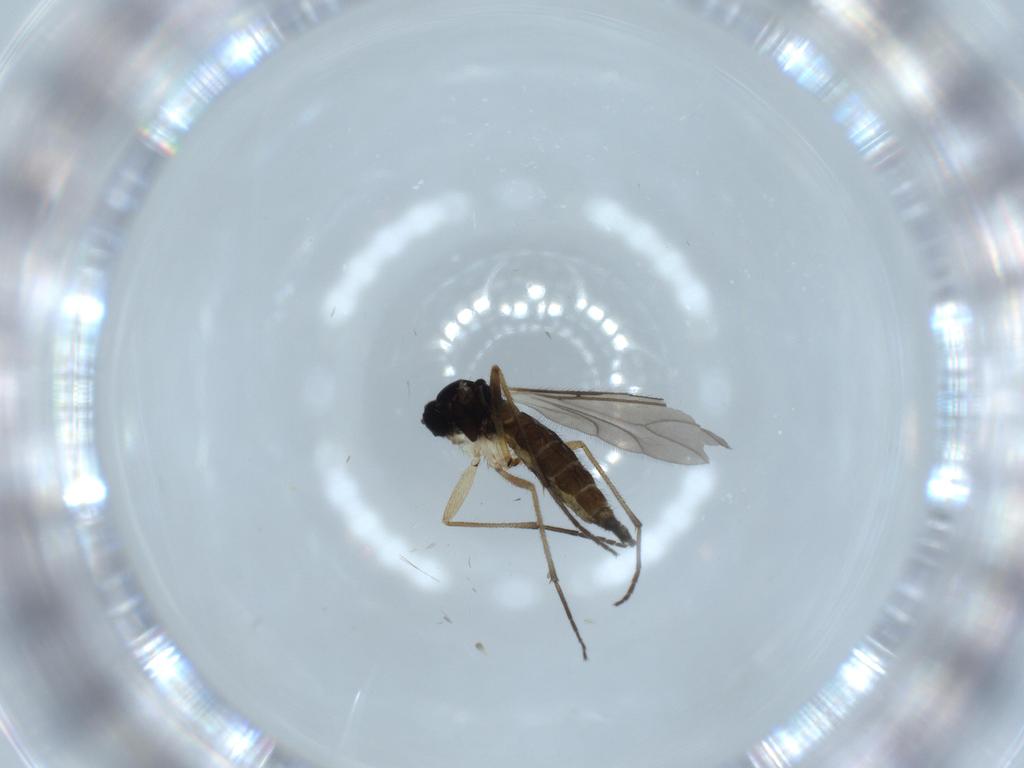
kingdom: Animalia
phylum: Arthropoda
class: Insecta
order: Diptera
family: Sciaridae
